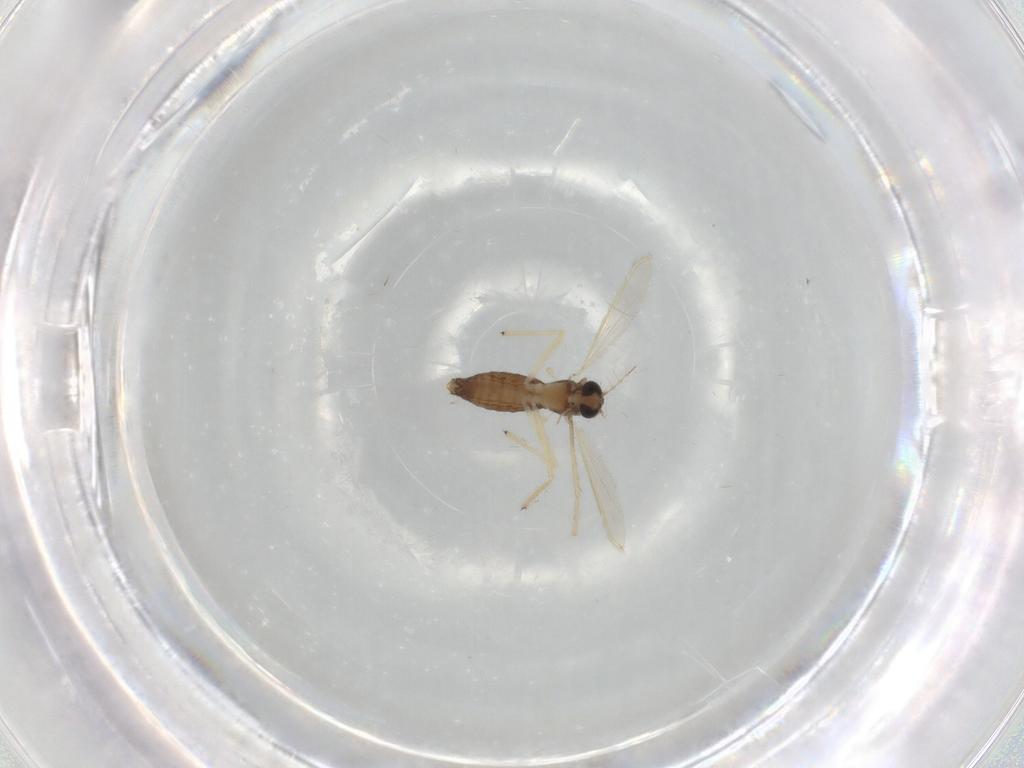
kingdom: Animalia
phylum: Arthropoda
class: Insecta
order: Diptera
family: Chironomidae
